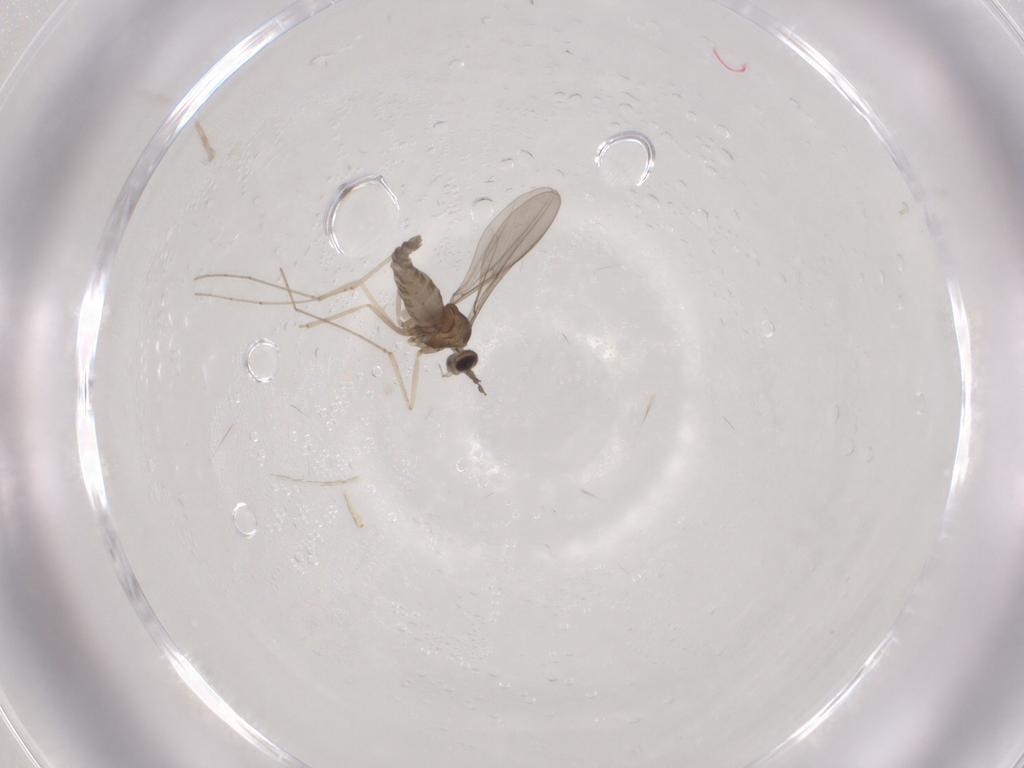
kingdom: Animalia
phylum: Arthropoda
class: Insecta
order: Diptera
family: Cecidomyiidae
